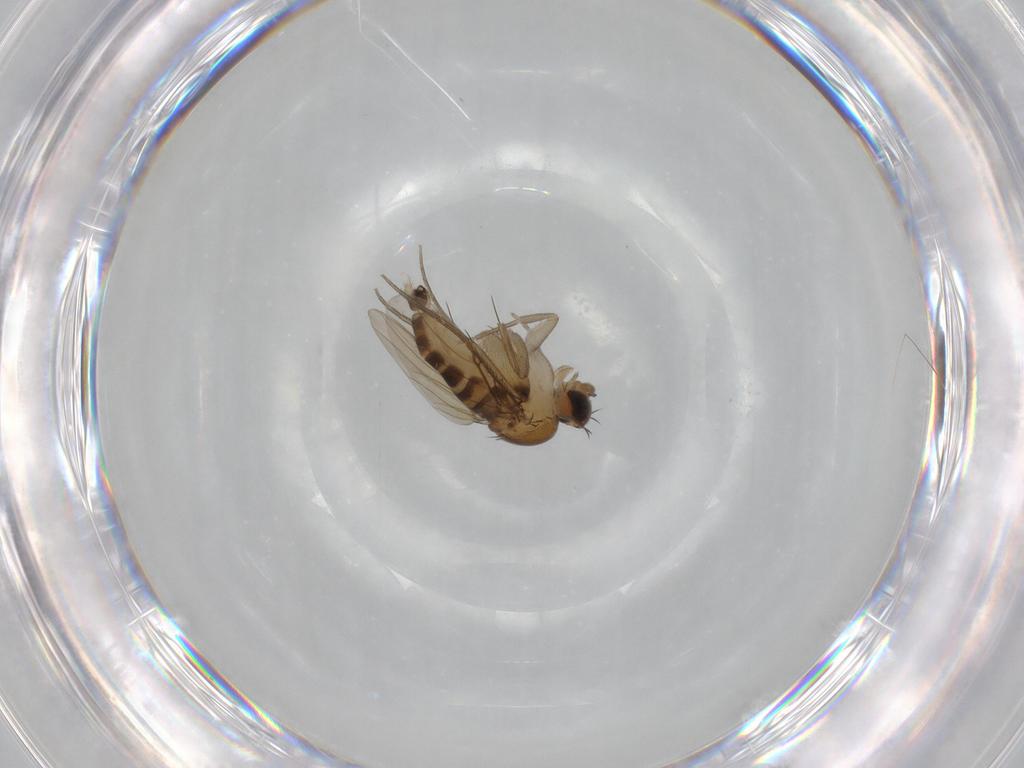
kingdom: Animalia
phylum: Arthropoda
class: Insecta
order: Diptera
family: Phoridae
